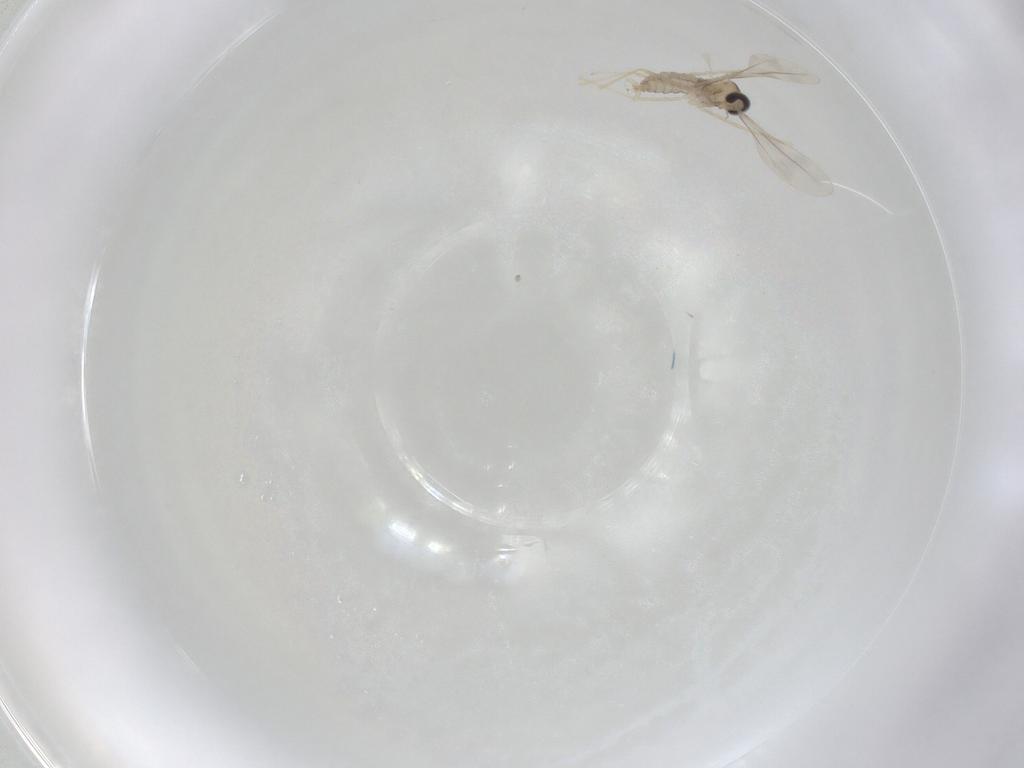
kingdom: Animalia
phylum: Arthropoda
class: Insecta
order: Diptera
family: Cecidomyiidae
